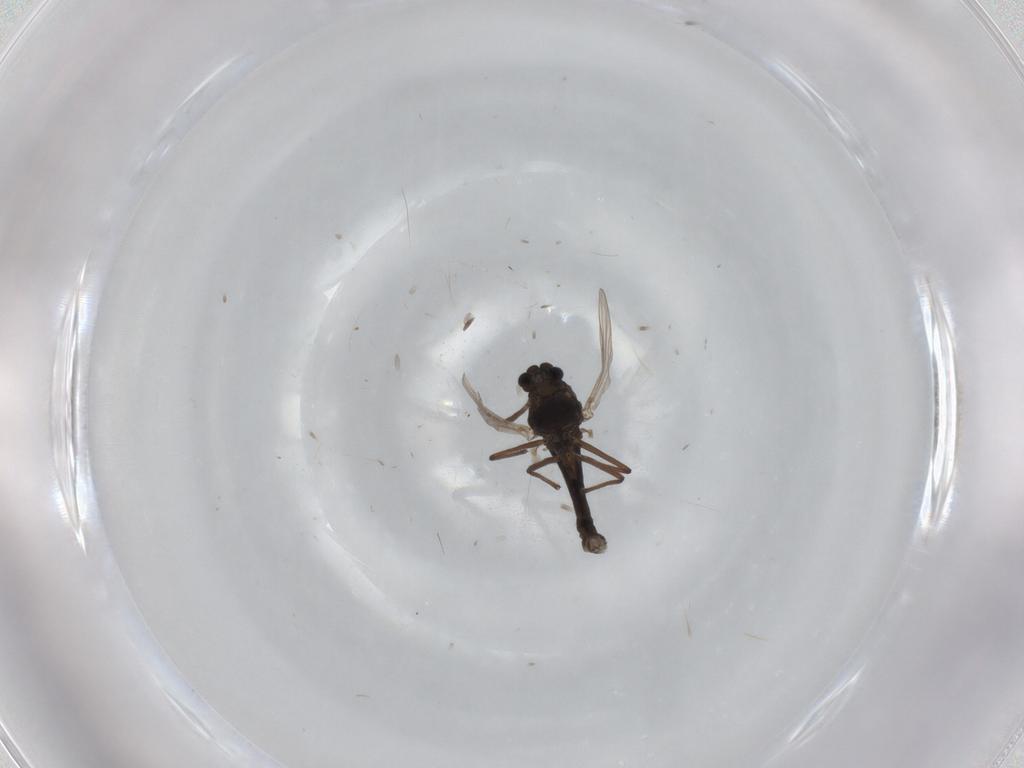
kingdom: Animalia
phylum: Arthropoda
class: Insecta
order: Diptera
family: Chironomidae
